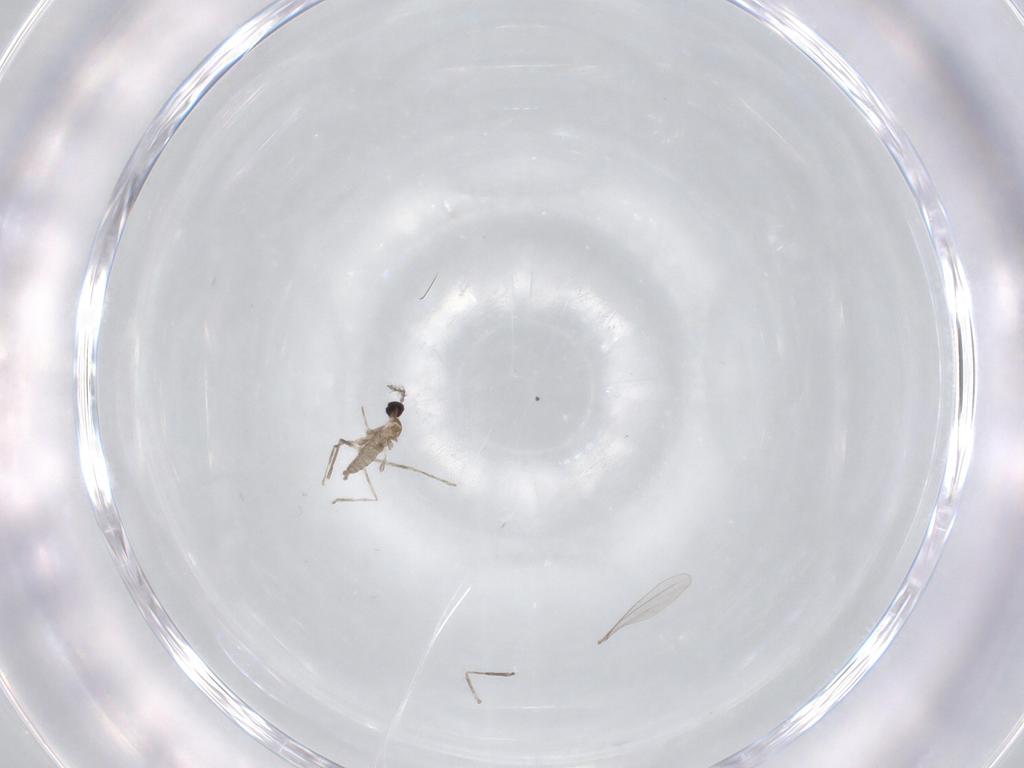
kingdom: Animalia
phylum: Arthropoda
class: Insecta
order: Diptera
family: Cecidomyiidae
